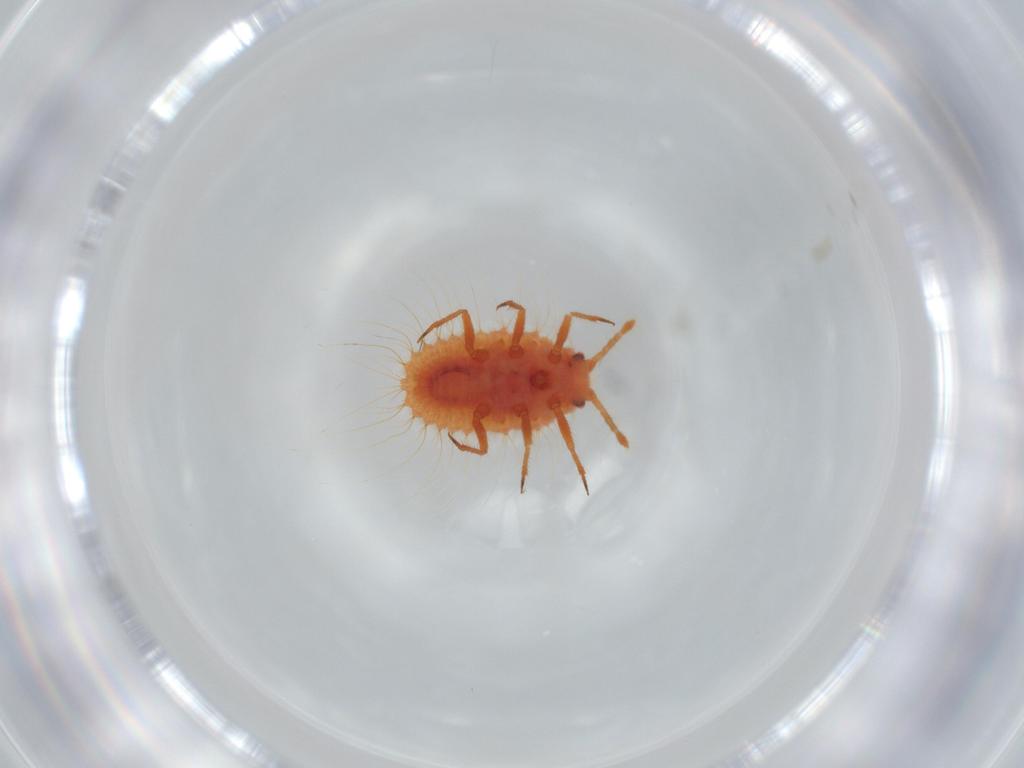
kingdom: Animalia
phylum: Arthropoda
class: Insecta
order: Hemiptera
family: Coccoidea_incertae_sedis
